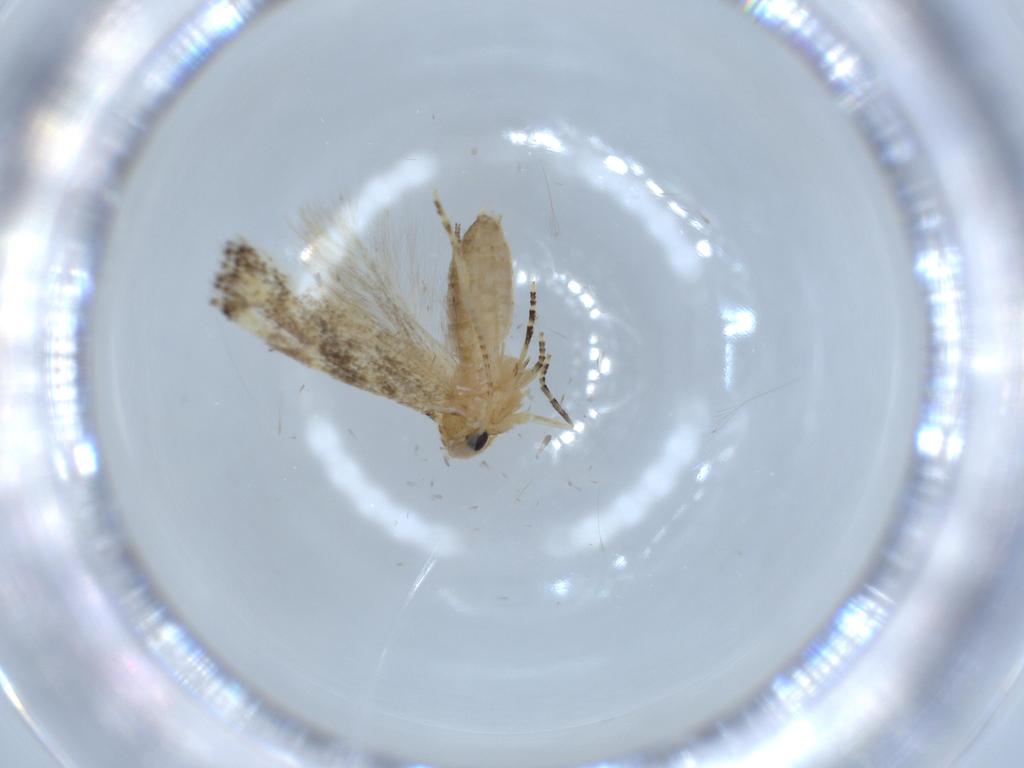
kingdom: Animalia
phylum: Arthropoda
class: Insecta
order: Lepidoptera
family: Bucculatricidae
